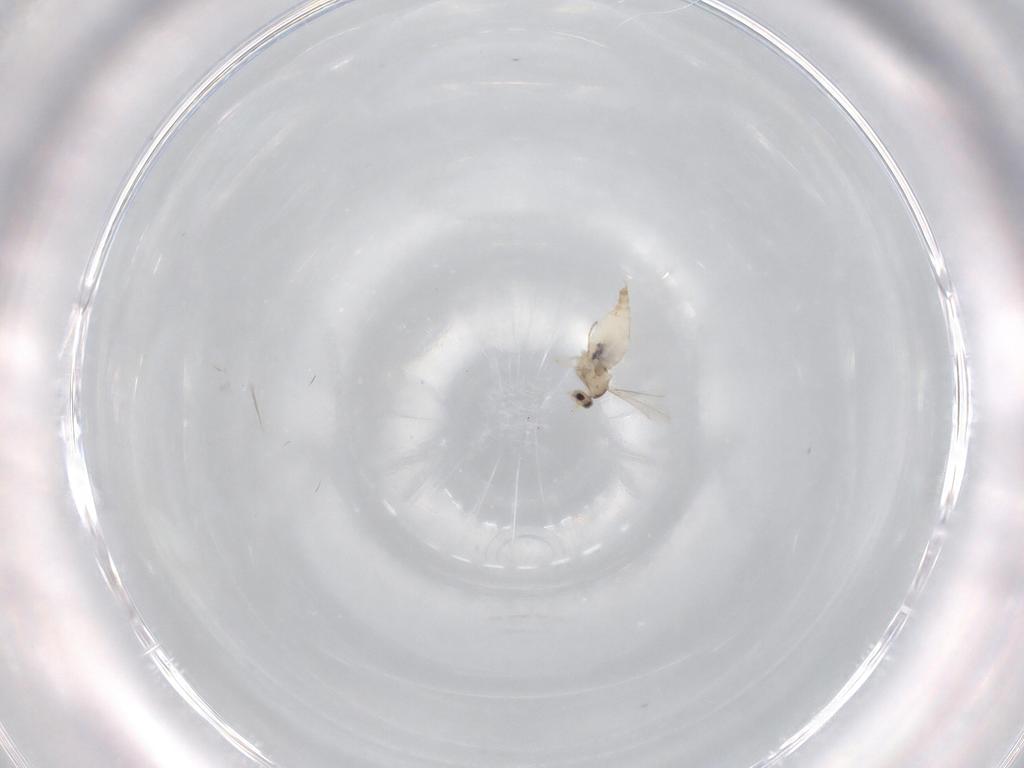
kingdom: Animalia
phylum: Arthropoda
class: Insecta
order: Diptera
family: Cecidomyiidae
